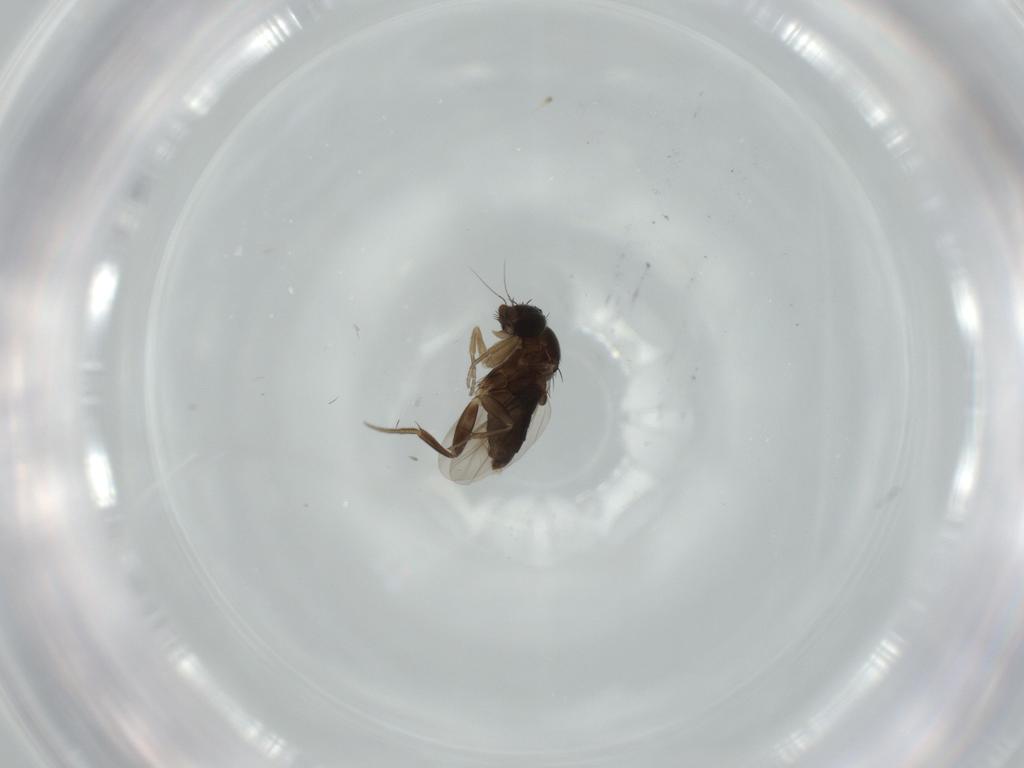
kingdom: Animalia
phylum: Arthropoda
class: Insecta
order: Diptera
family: Phoridae
